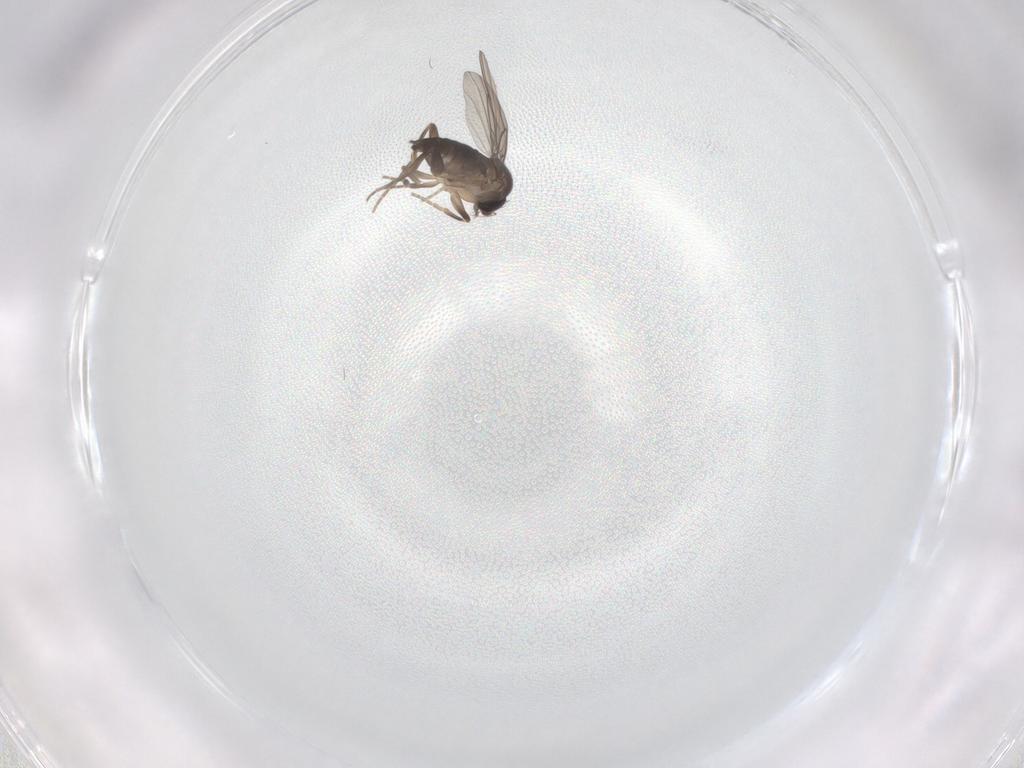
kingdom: Animalia
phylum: Arthropoda
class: Insecta
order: Diptera
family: Phoridae
